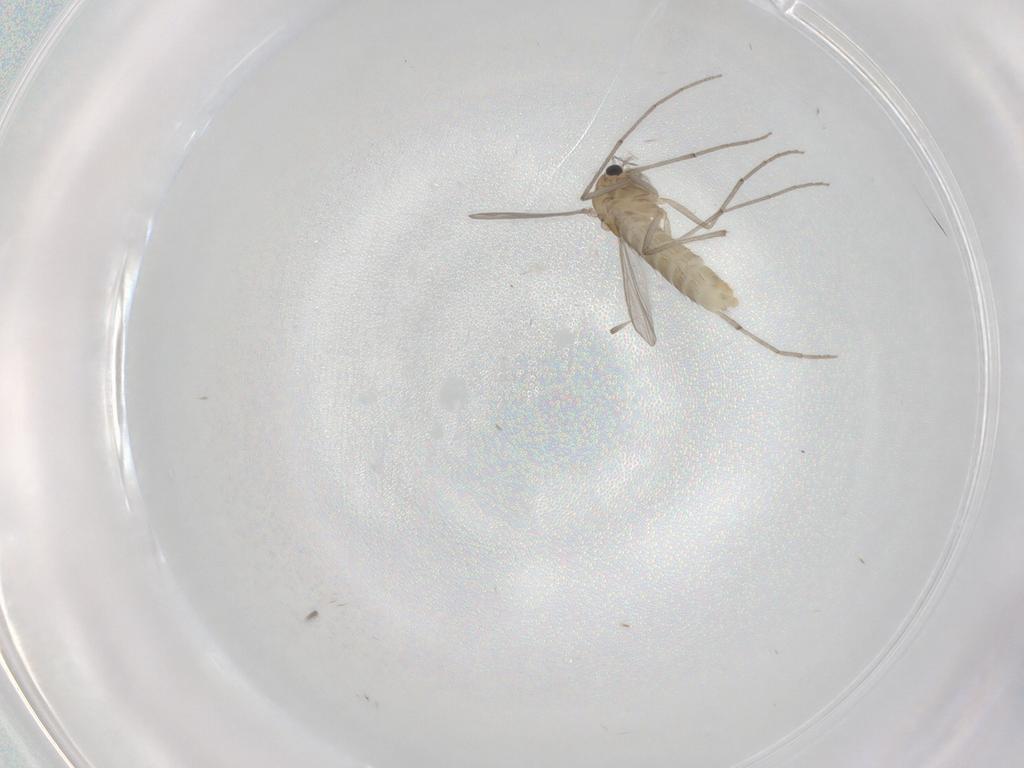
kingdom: Animalia
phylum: Arthropoda
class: Insecta
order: Diptera
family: Chironomidae
